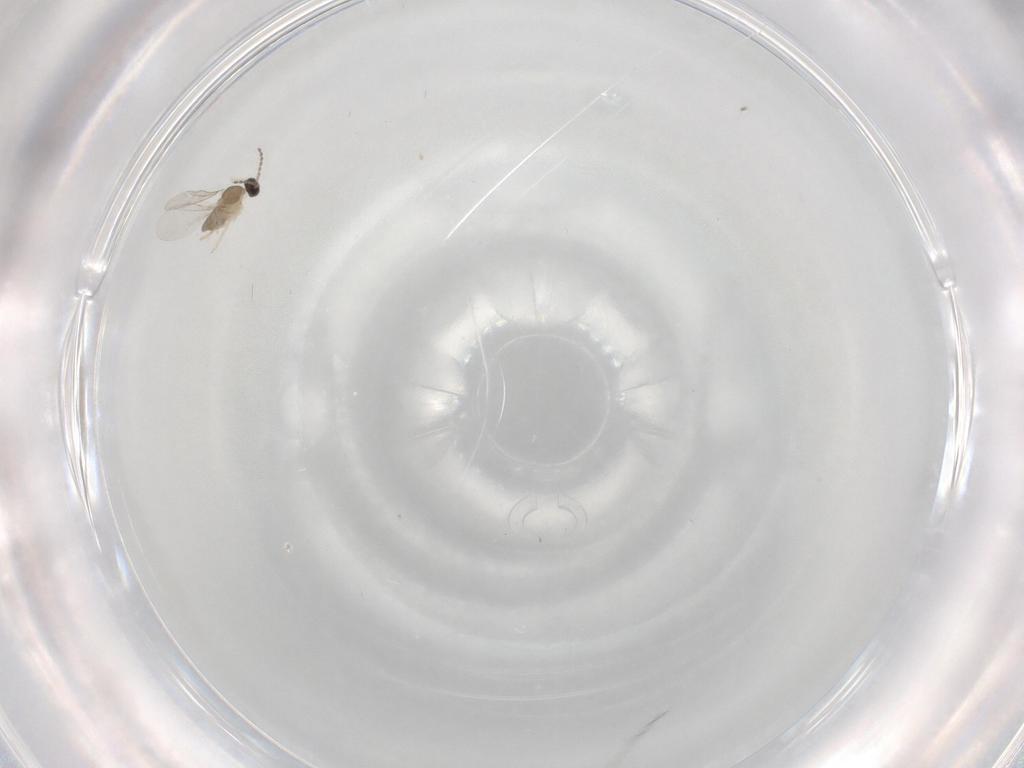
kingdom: Animalia
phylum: Arthropoda
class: Insecta
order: Diptera
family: Cecidomyiidae
